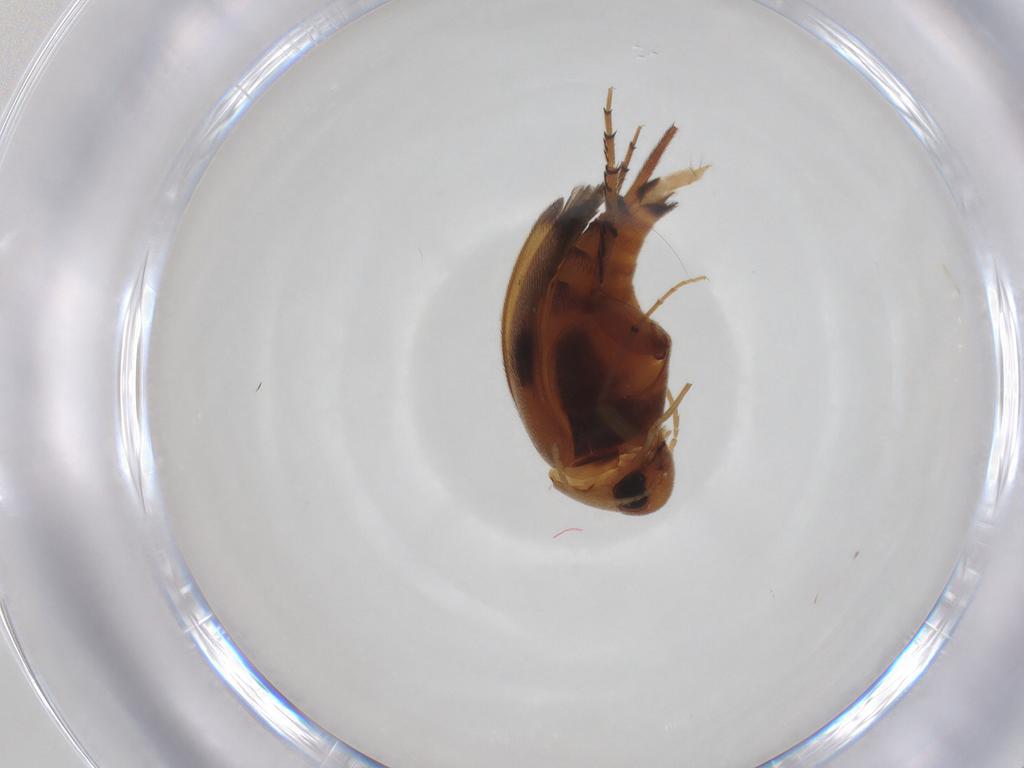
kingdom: Animalia
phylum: Arthropoda
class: Insecta
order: Coleoptera
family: Mordellidae
